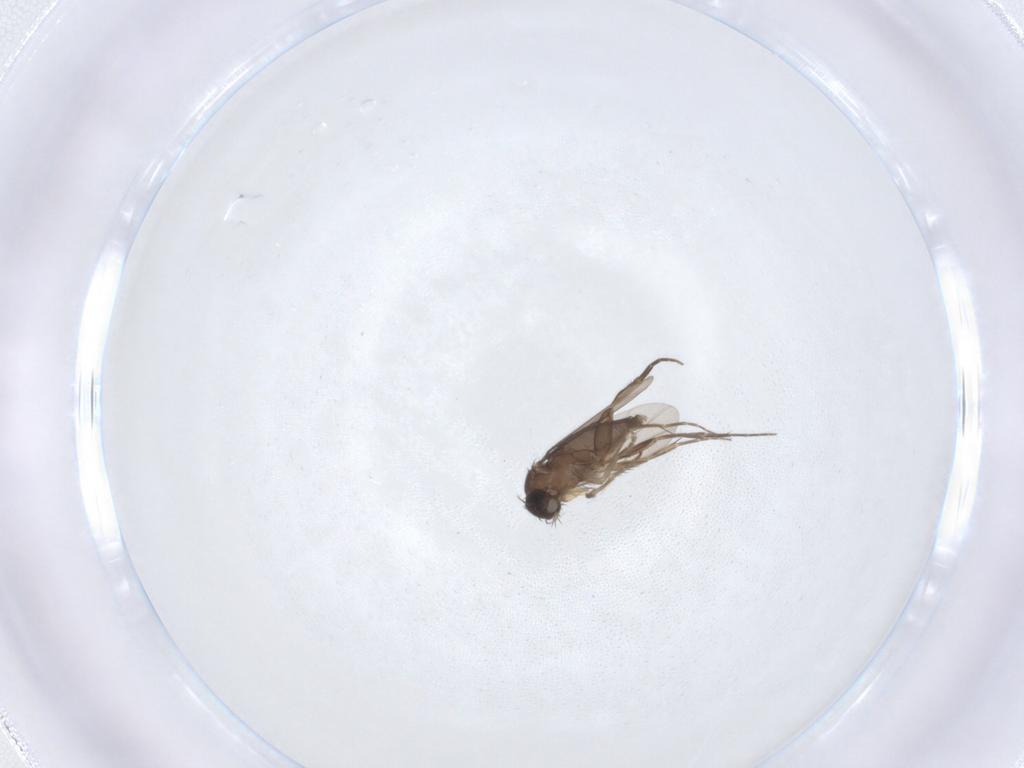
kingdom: Animalia
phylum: Arthropoda
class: Insecta
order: Diptera
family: Phoridae
